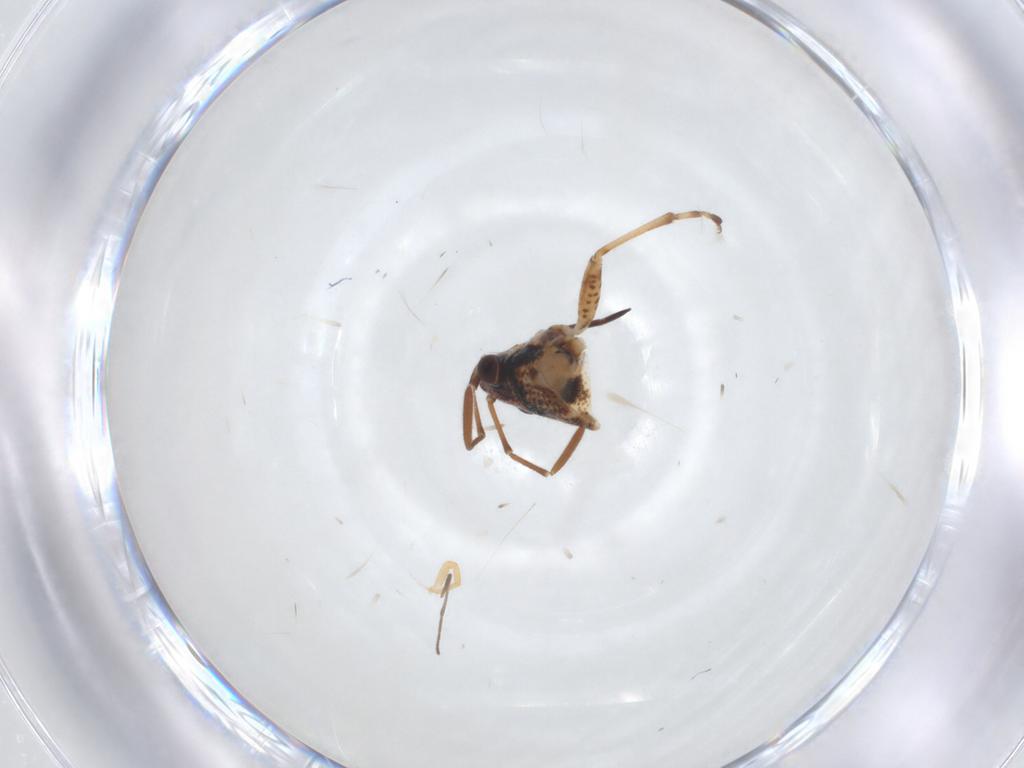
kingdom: Animalia
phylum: Arthropoda
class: Insecta
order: Hemiptera
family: Lygaeidae
